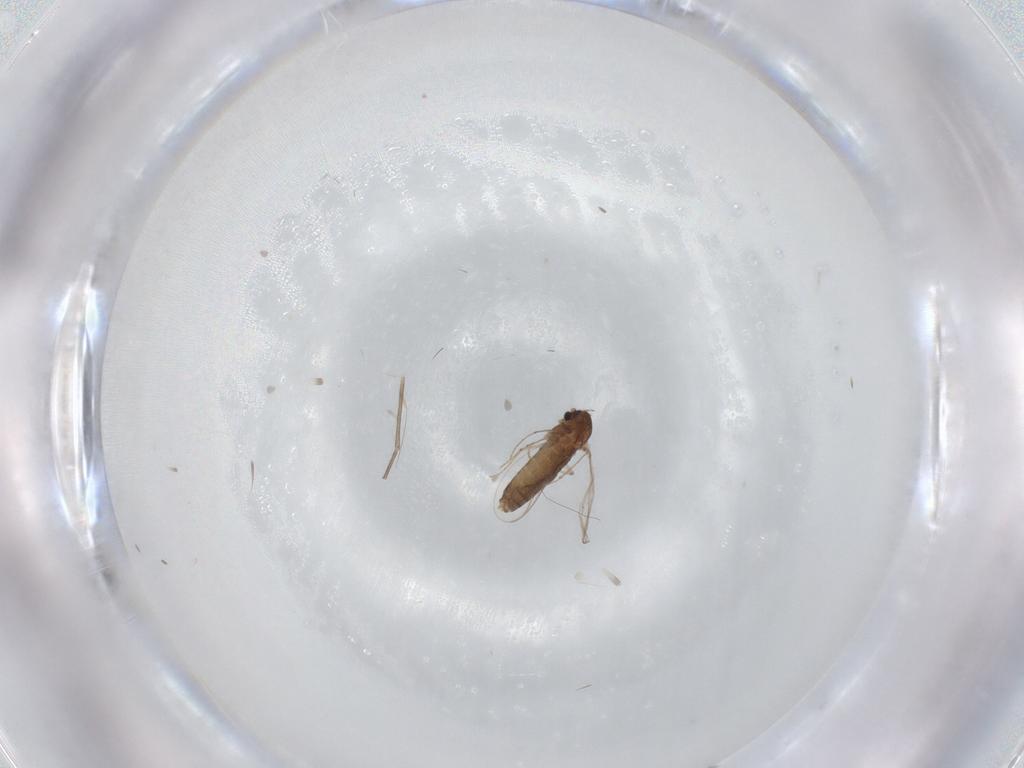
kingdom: Animalia
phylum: Arthropoda
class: Insecta
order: Diptera
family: Chironomidae
